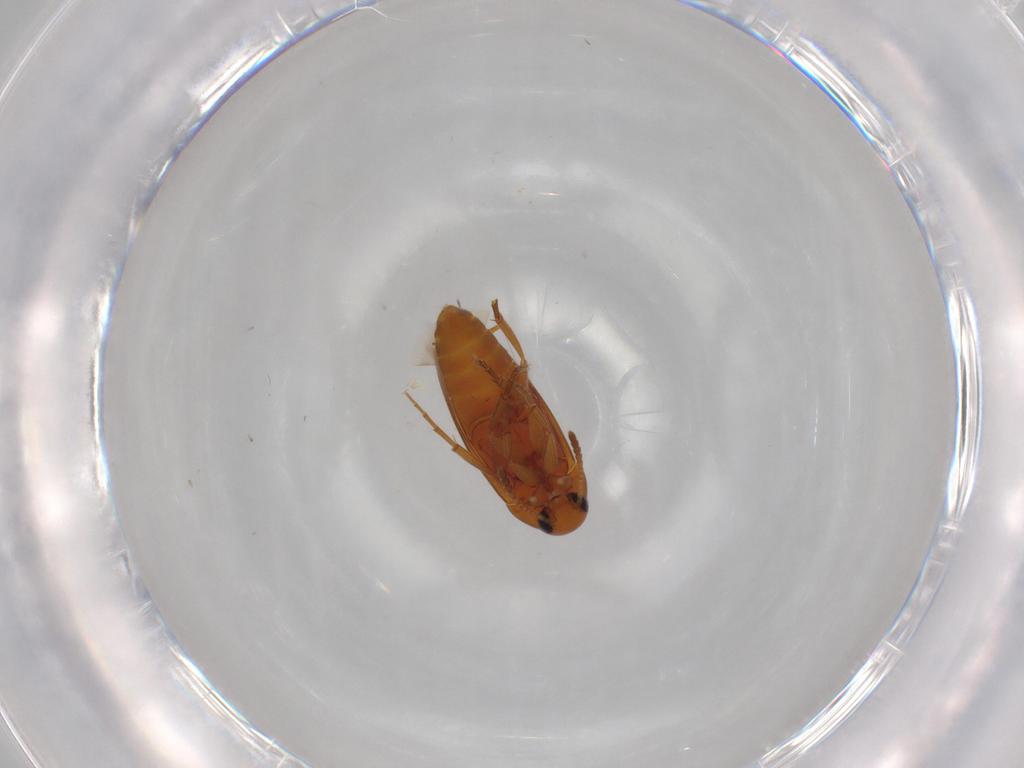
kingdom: Animalia
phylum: Arthropoda
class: Insecta
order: Coleoptera
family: Scraptiidae
